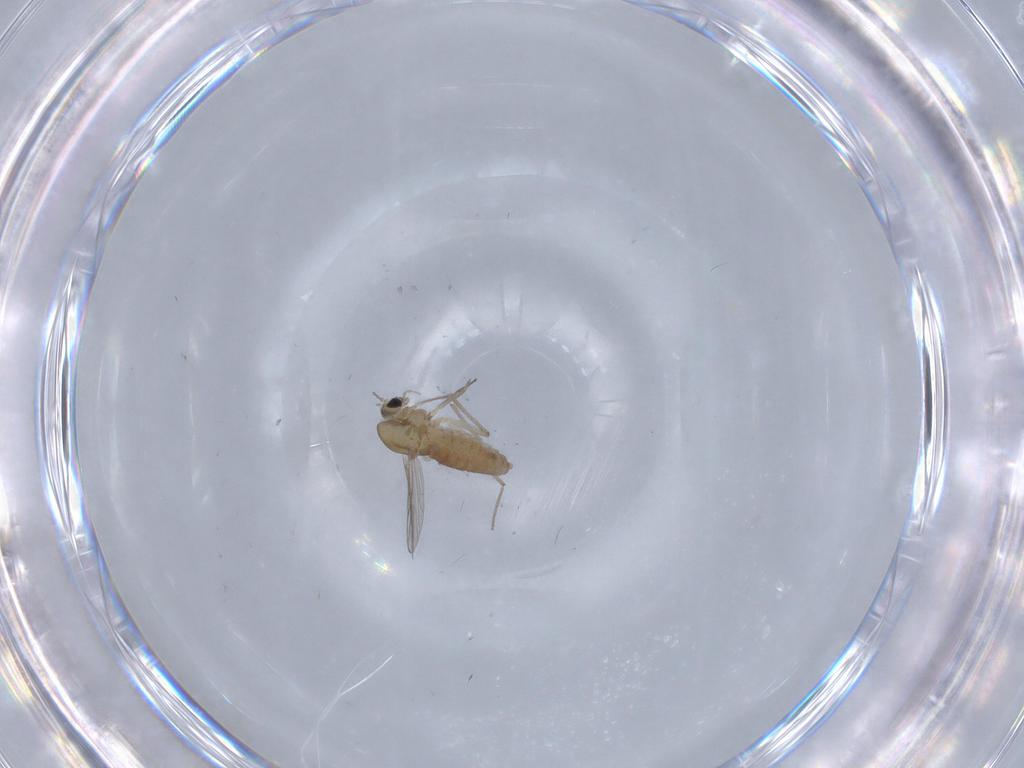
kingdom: Animalia
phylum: Arthropoda
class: Insecta
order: Diptera
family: Chironomidae
